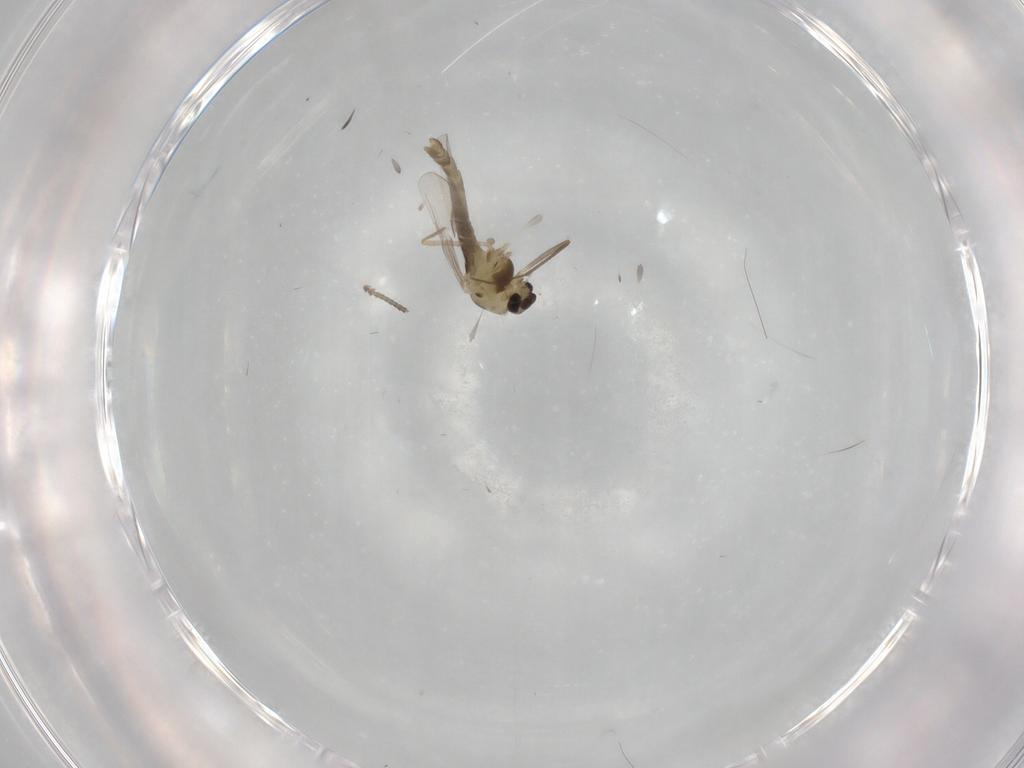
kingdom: Animalia
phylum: Arthropoda
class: Insecta
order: Diptera
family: Chironomidae
